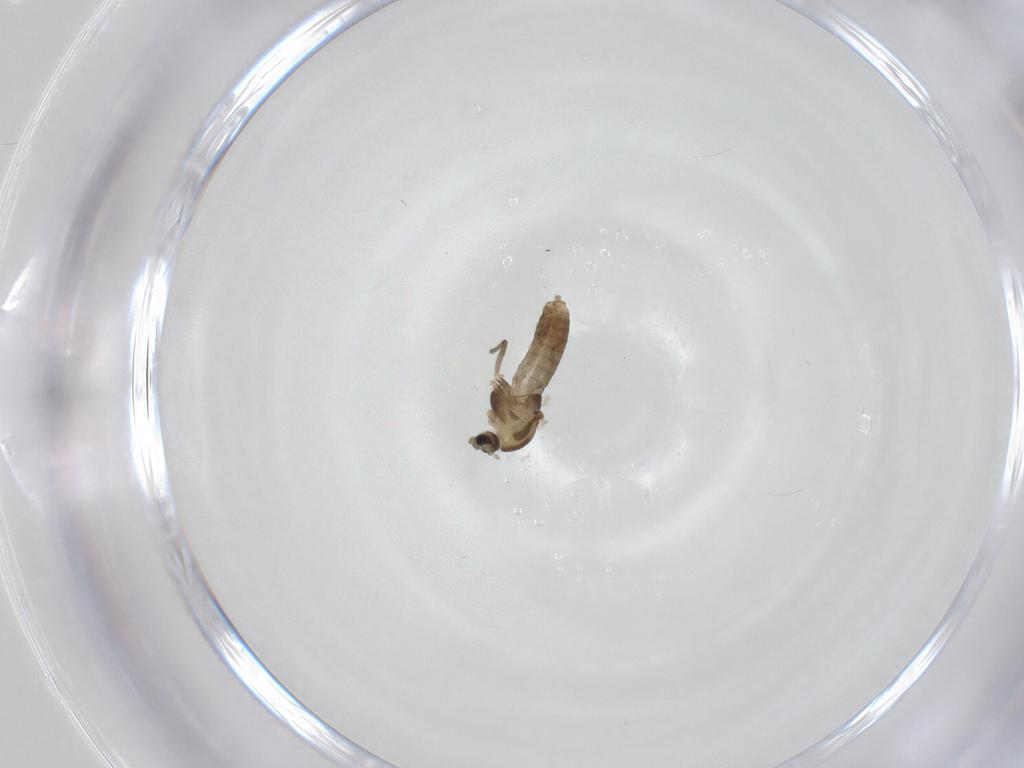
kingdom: Animalia
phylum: Arthropoda
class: Insecta
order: Diptera
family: Chironomidae
